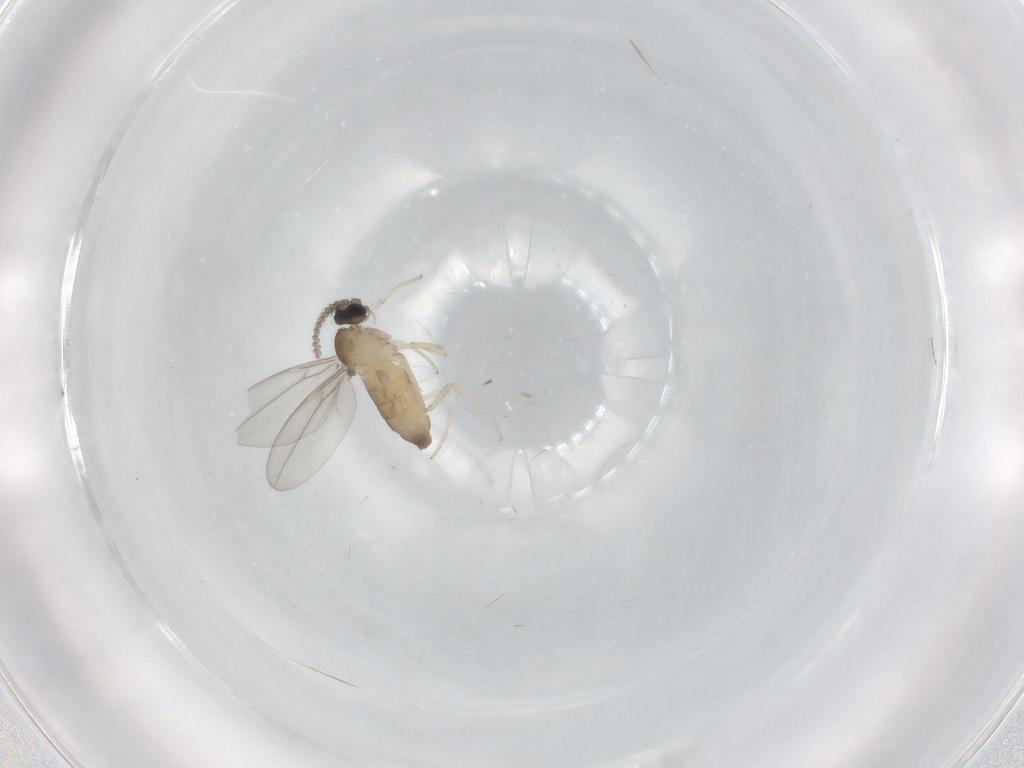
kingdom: Animalia
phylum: Arthropoda
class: Insecta
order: Diptera
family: Cecidomyiidae
